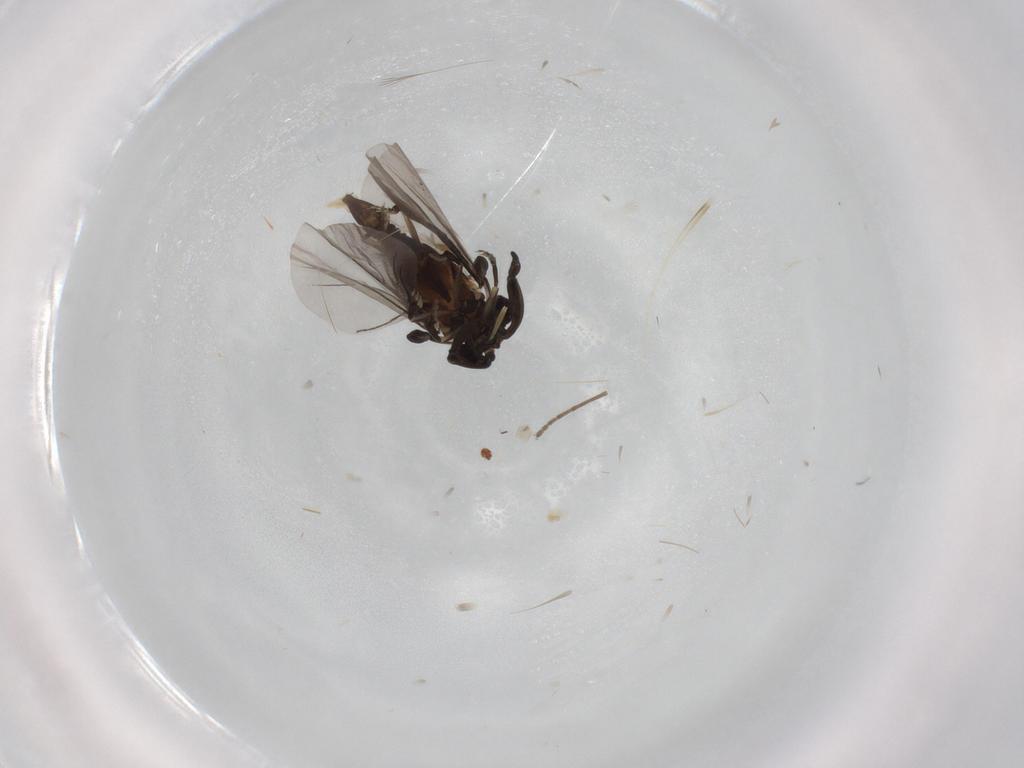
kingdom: Animalia
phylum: Arthropoda
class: Insecta
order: Strepsiptera
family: Myrmecolacidae
